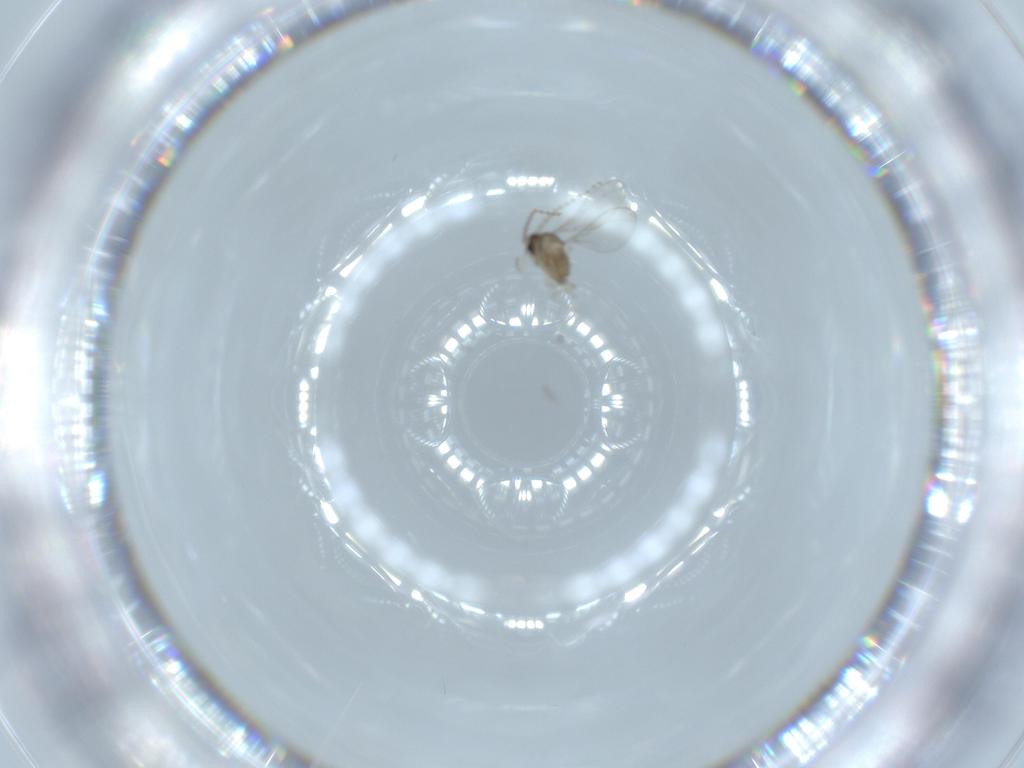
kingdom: Animalia
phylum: Arthropoda
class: Insecta
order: Diptera
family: Cecidomyiidae
